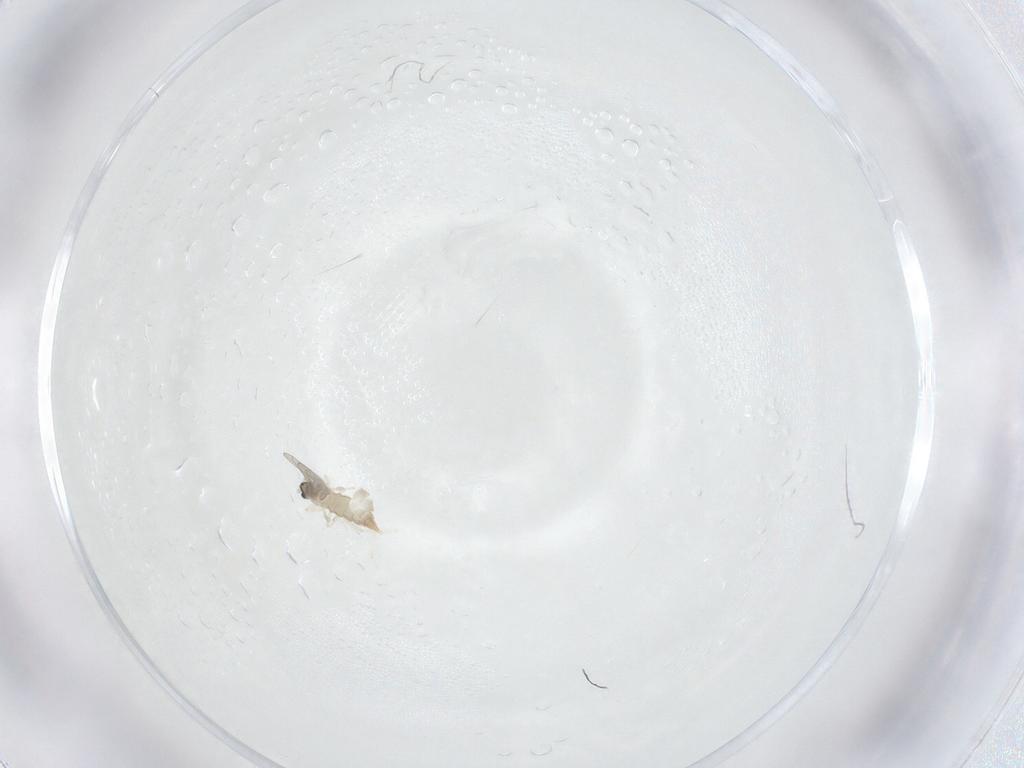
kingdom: Animalia
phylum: Arthropoda
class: Insecta
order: Diptera
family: Cecidomyiidae
